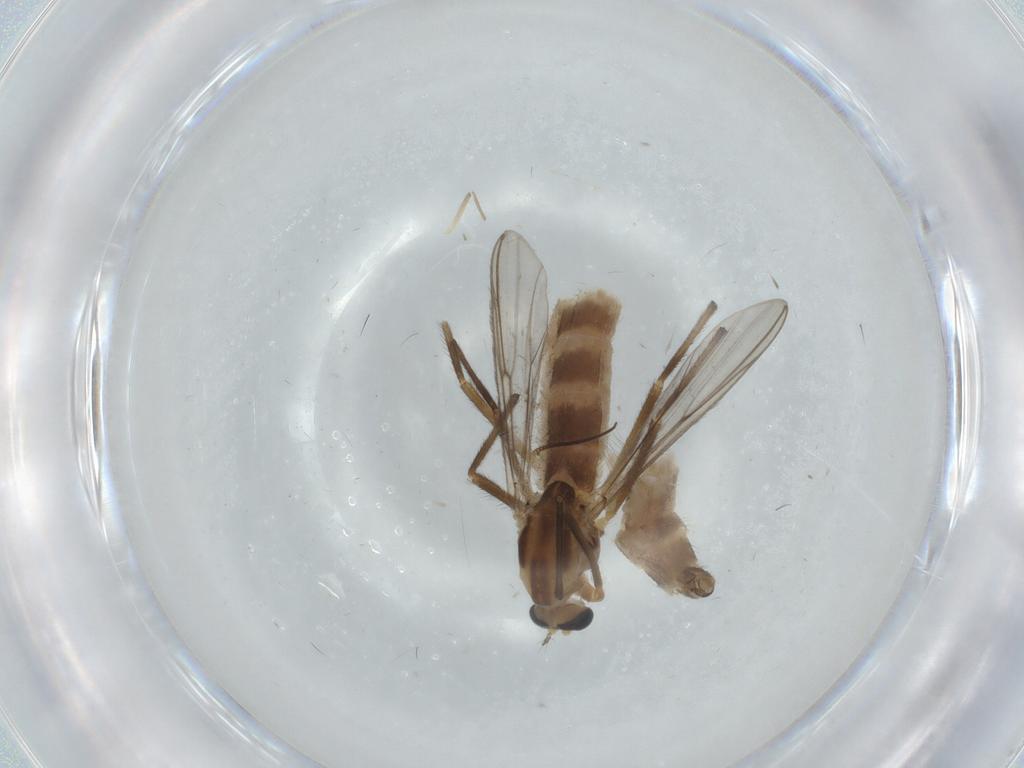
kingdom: Animalia
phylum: Arthropoda
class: Insecta
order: Diptera
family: Chironomidae
